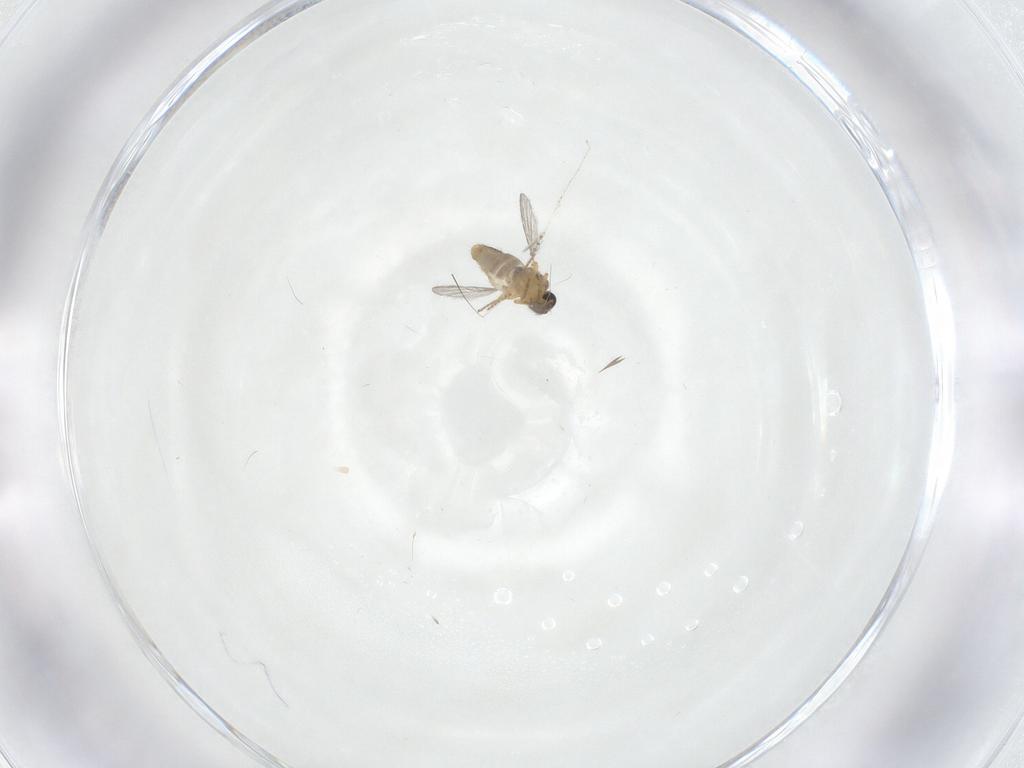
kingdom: Animalia
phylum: Arthropoda
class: Insecta
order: Diptera
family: Ceratopogonidae
